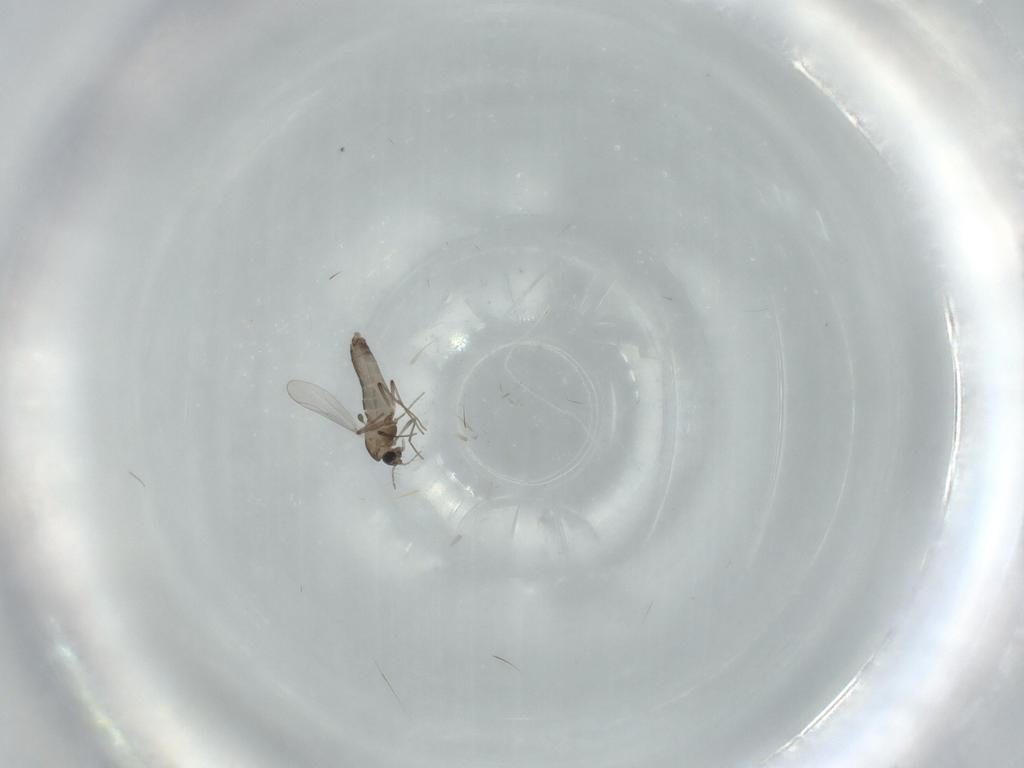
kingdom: Animalia
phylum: Arthropoda
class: Insecta
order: Diptera
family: Chironomidae
